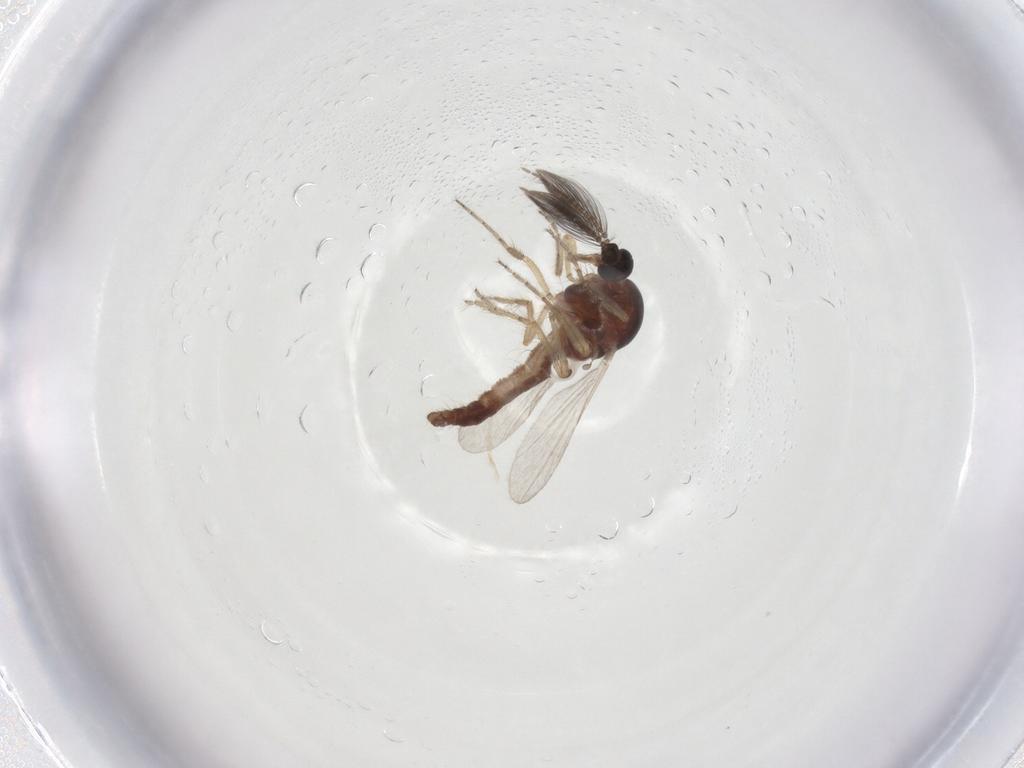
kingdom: Animalia
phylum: Arthropoda
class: Insecta
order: Diptera
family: Ceratopogonidae
